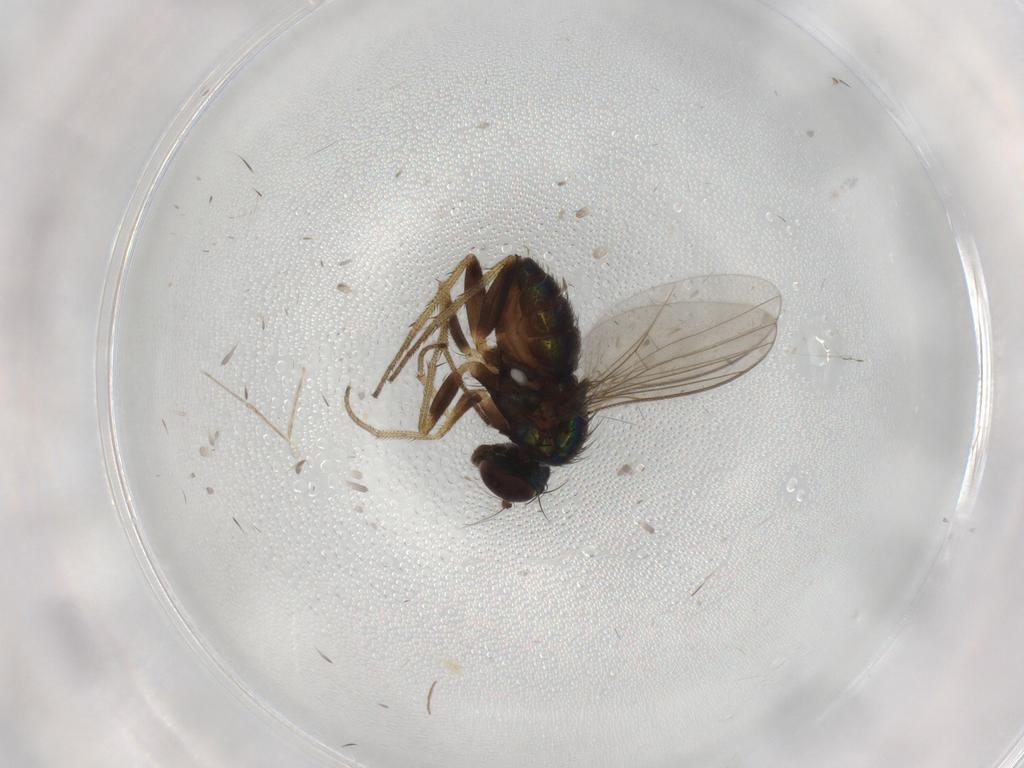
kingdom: Animalia
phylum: Arthropoda
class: Insecta
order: Diptera
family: Cecidomyiidae
